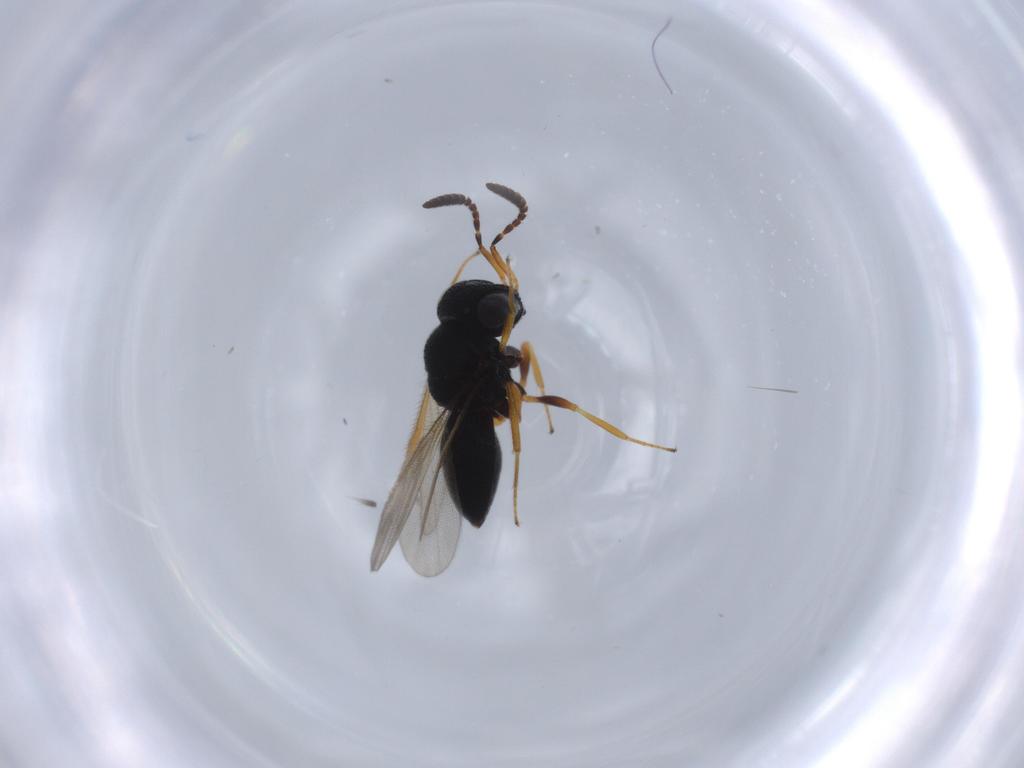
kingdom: Animalia
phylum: Arthropoda
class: Insecta
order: Hymenoptera
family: Scelionidae
